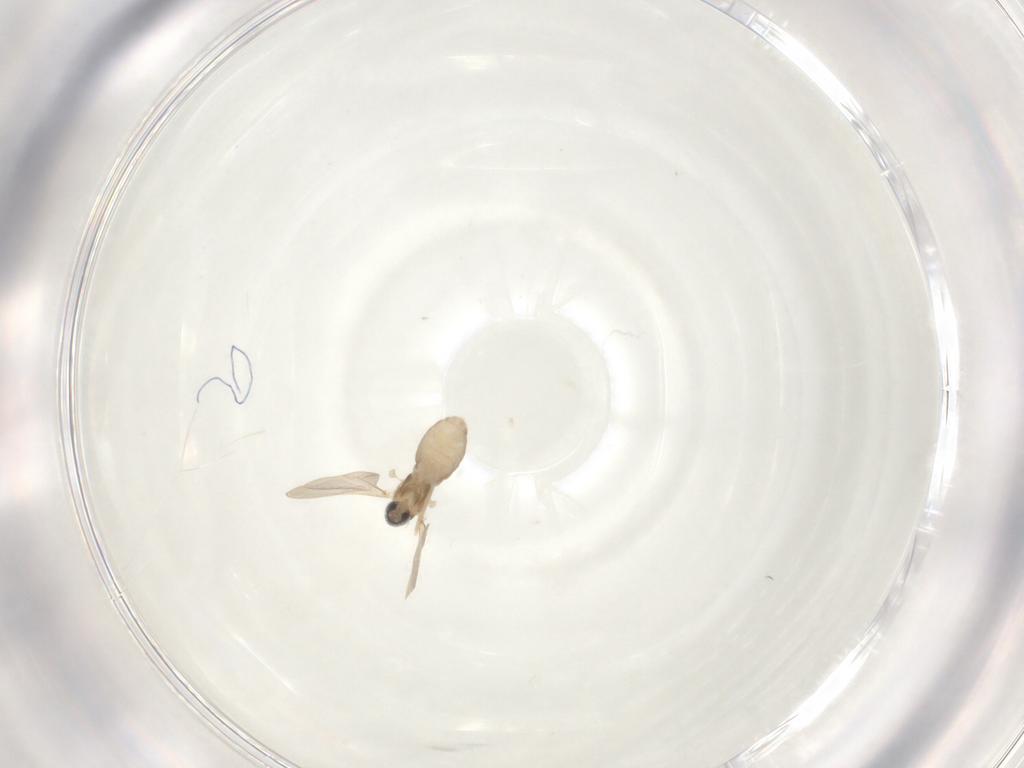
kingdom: Animalia
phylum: Arthropoda
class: Insecta
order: Diptera
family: Cecidomyiidae
